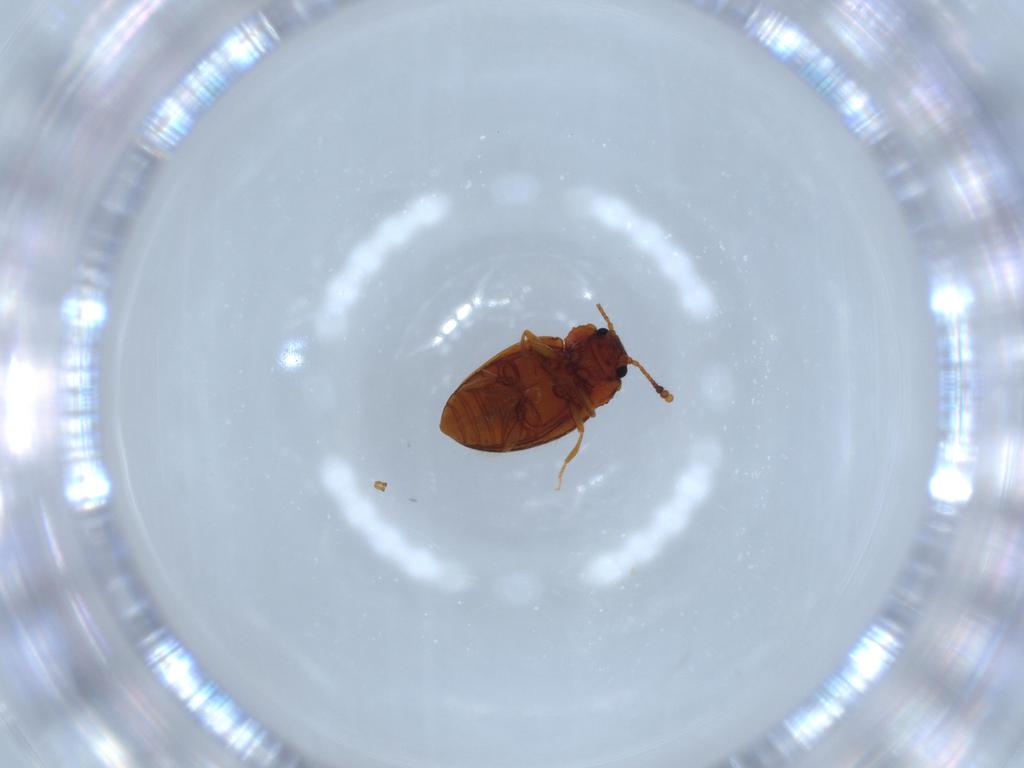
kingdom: Animalia
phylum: Arthropoda
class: Insecta
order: Coleoptera
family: Erotylidae
